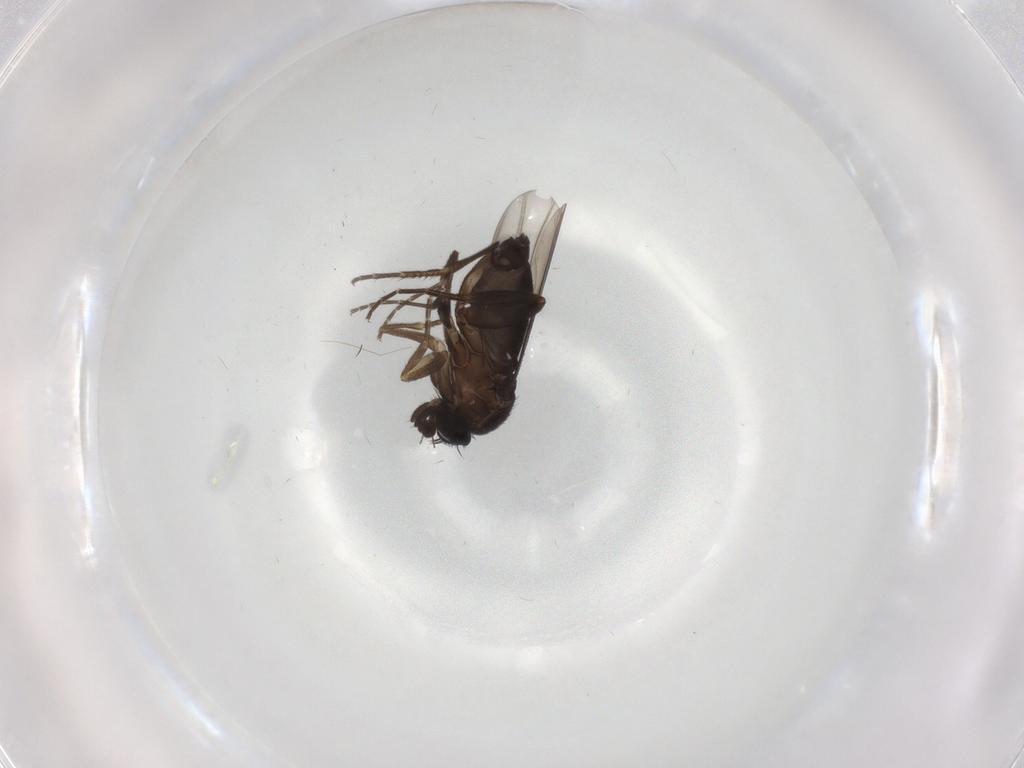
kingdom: Animalia
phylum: Arthropoda
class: Insecta
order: Diptera
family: Phoridae
